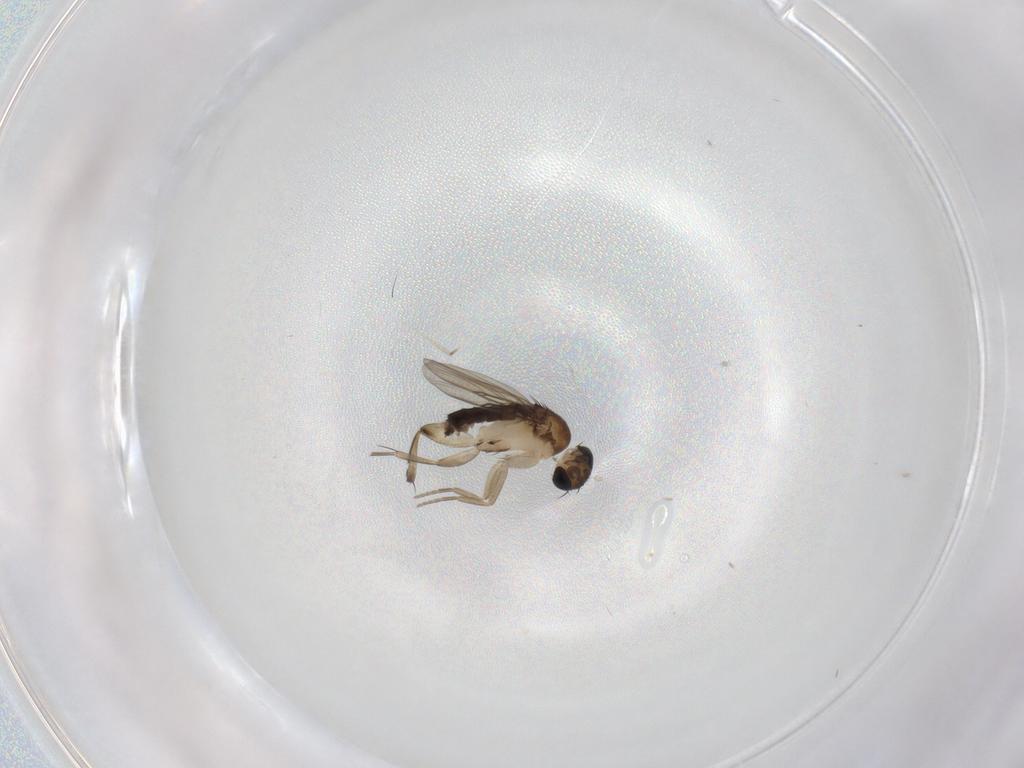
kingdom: Animalia
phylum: Arthropoda
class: Insecta
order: Diptera
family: Phoridae
